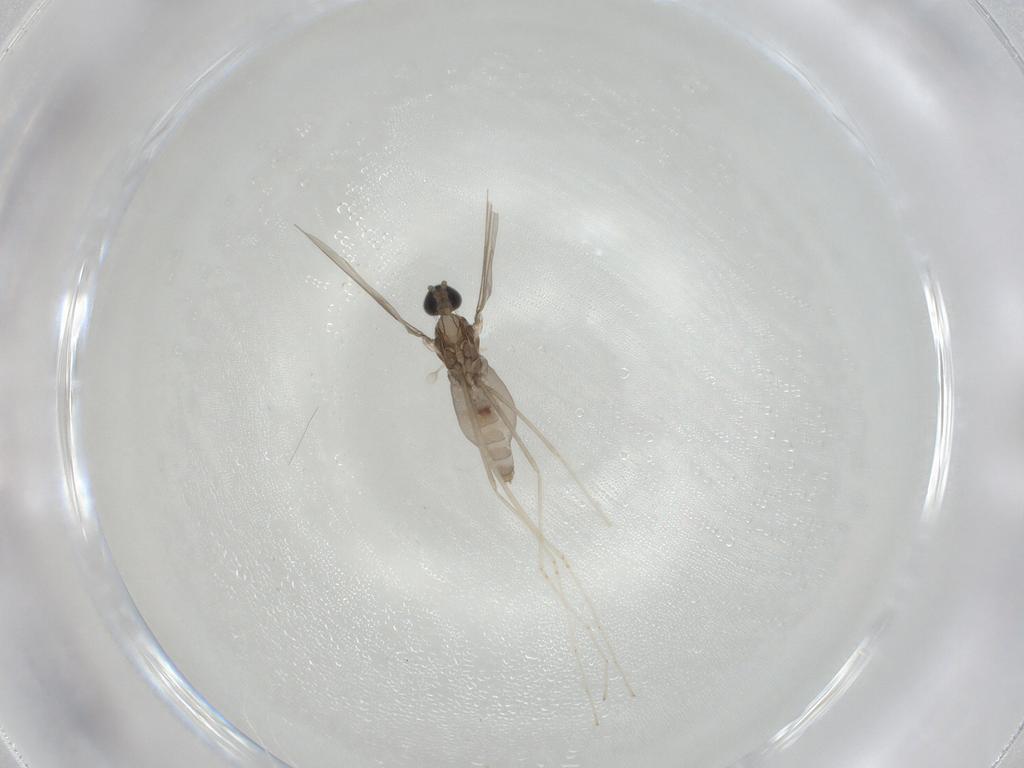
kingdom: Animalia
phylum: Arthropoda
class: Insecta
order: Diptera
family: Cecidomyiidae
